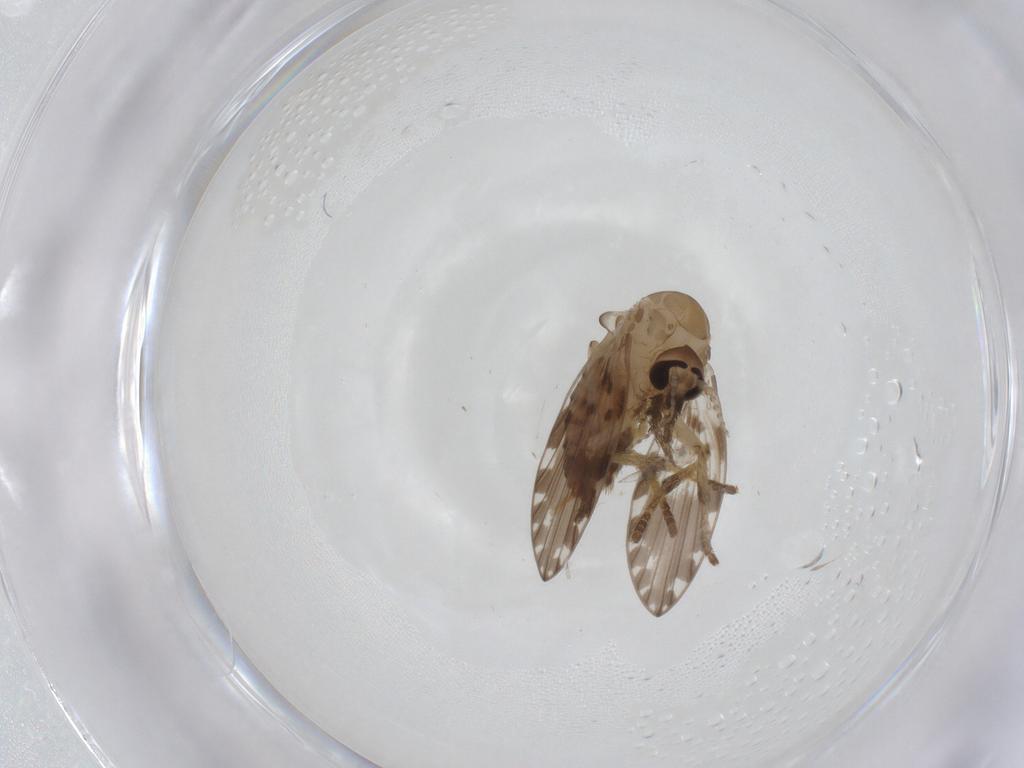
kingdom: Animalia
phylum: Arthropoda
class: Insecta
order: Diptera
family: Psychodidae
